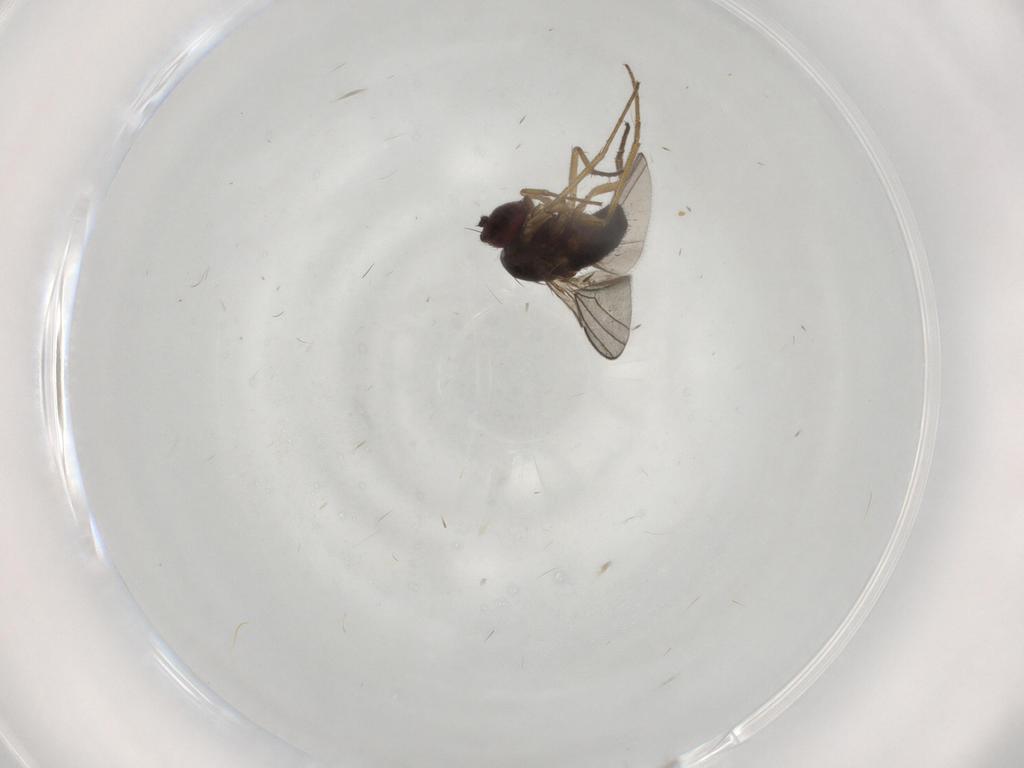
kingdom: Animalia
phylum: Arthropoda
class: Insecta
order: Diptera
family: Dolichopodidae
